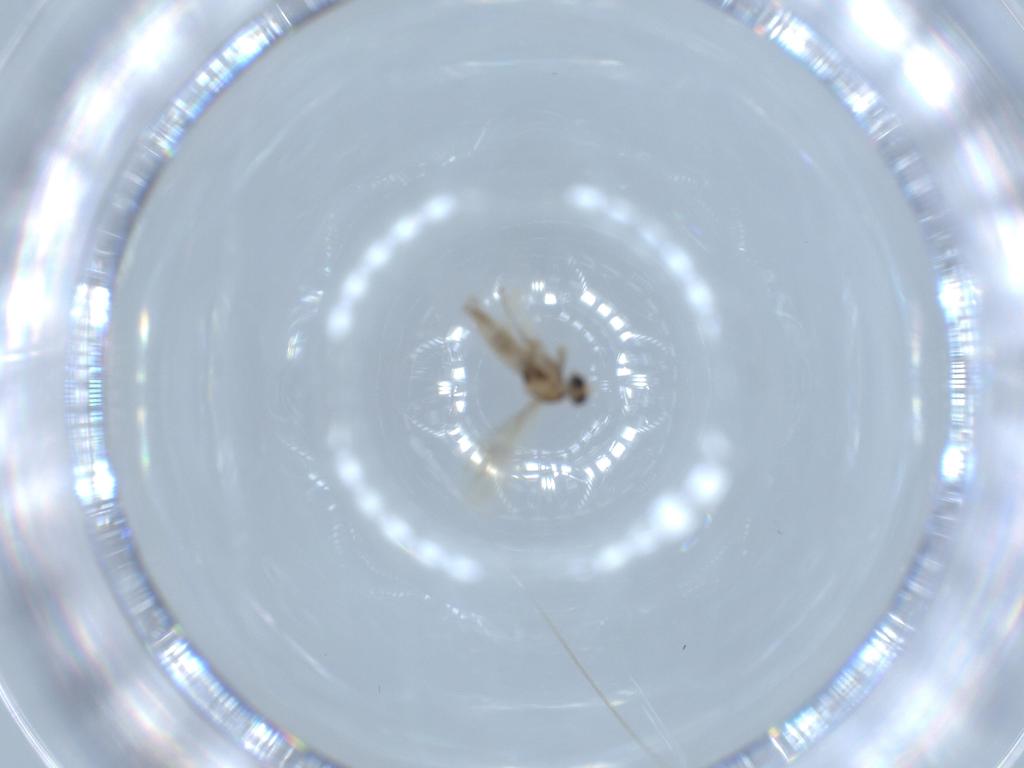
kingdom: Animalia
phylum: Arthropoda
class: Insecta
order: Diptera
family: Cecidomyiidae
